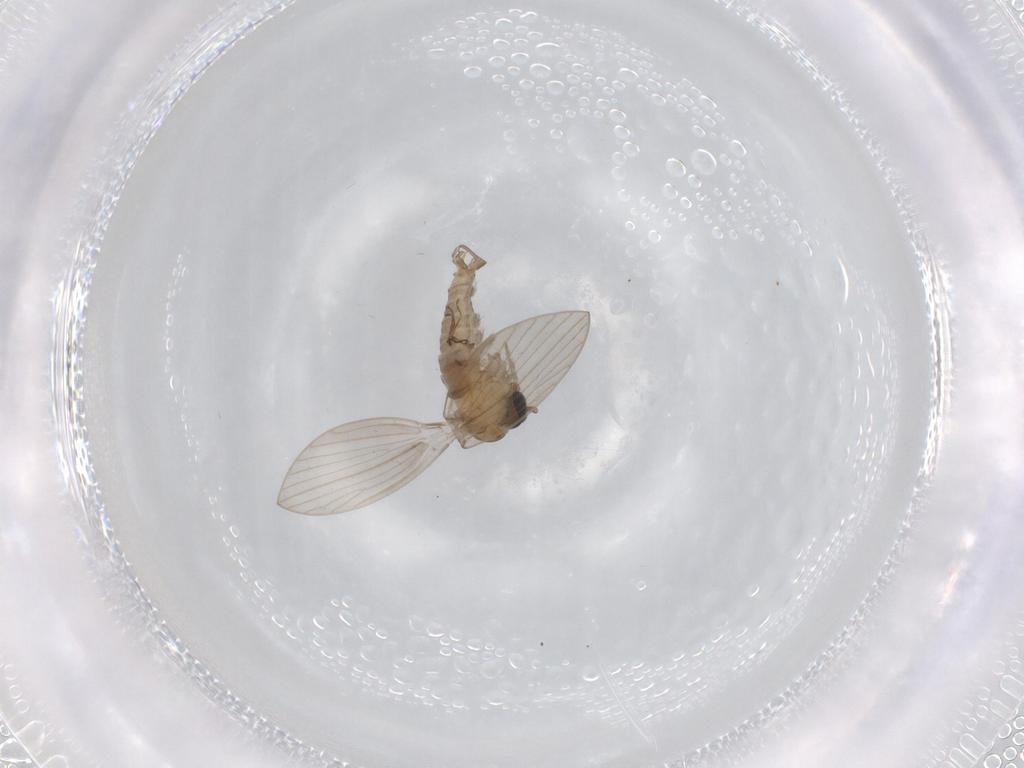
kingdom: Animalia
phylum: Arthropoda
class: Insecta
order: Diptera
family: Psychodidae
